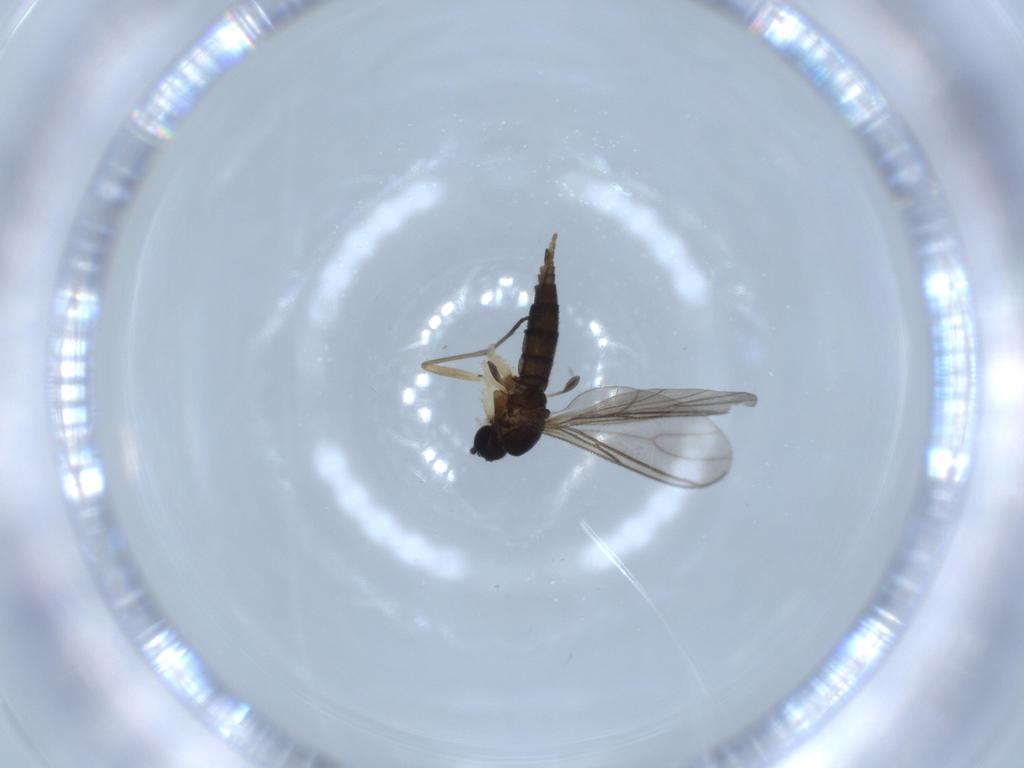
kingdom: Animalia
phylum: Arthropoda
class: Insecta
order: Diptera
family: Sciaridae
